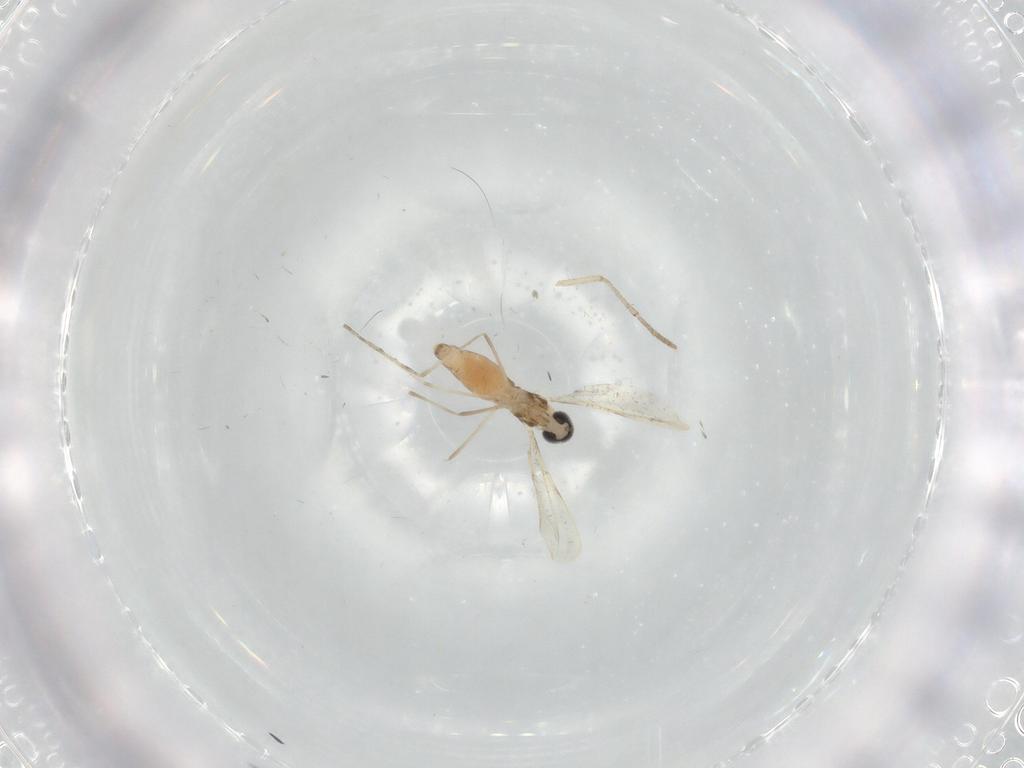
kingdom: Animalia
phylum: Arthropoda
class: Insecta
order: Diptera
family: Cecidomyiidae
